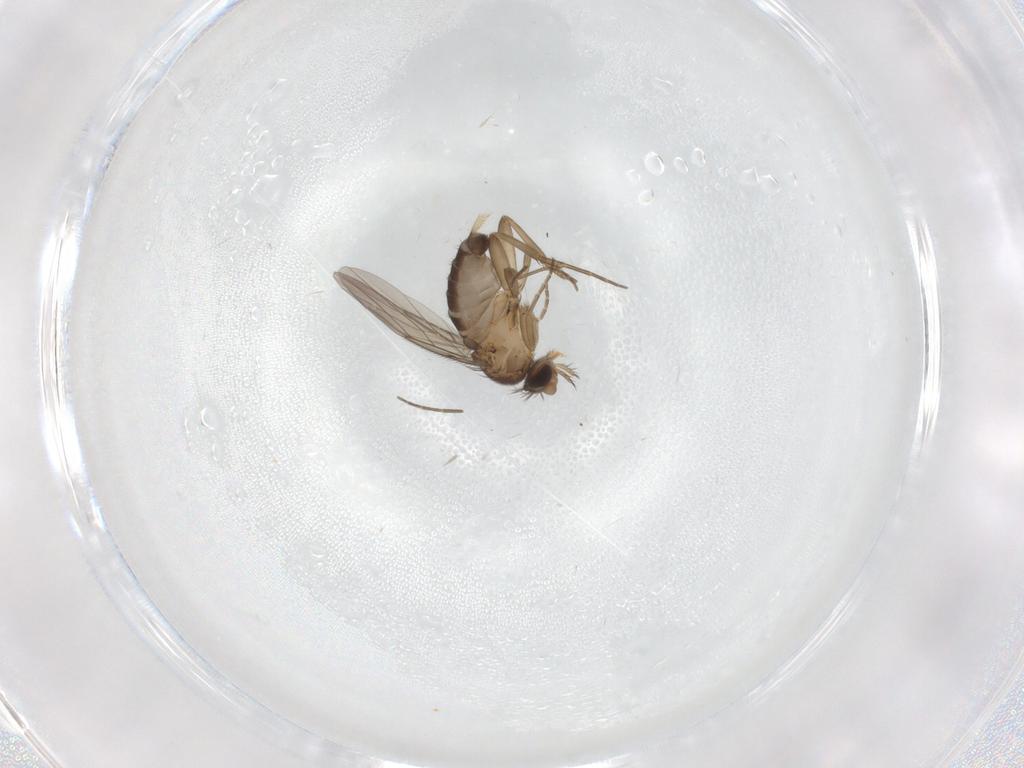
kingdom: Animalia
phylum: Arthropoda
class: Insecta
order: Diptera
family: Phoridae
